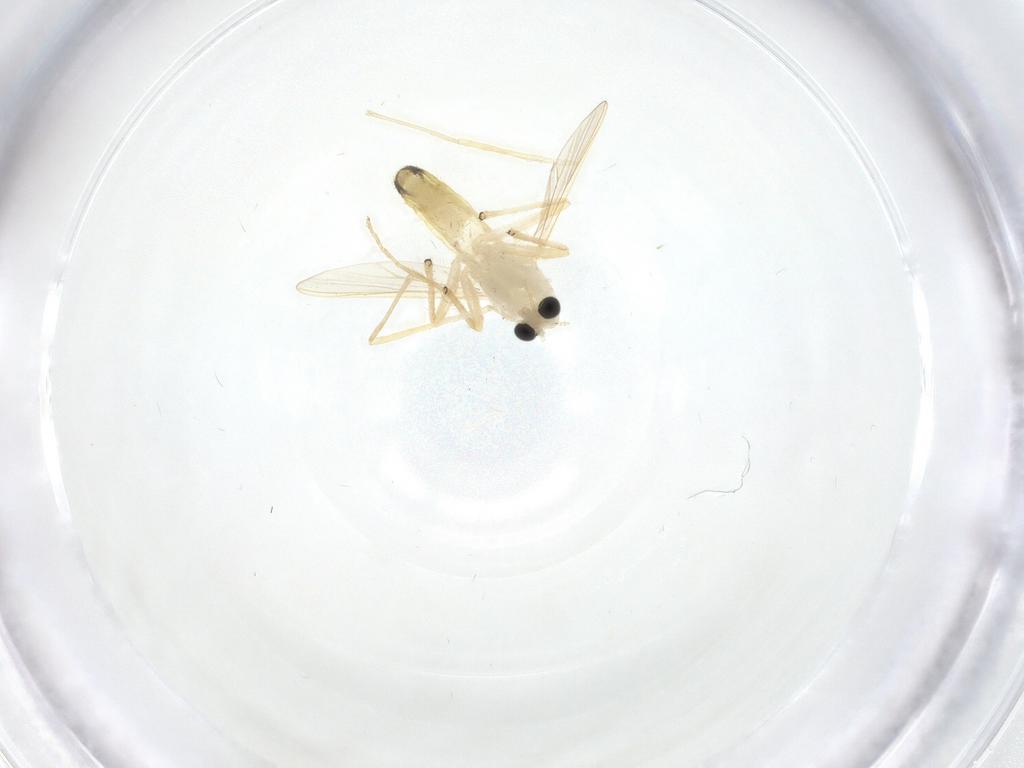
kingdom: Animalia
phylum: Arthropoda
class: Insecta
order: Diptera
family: Chironomidae
